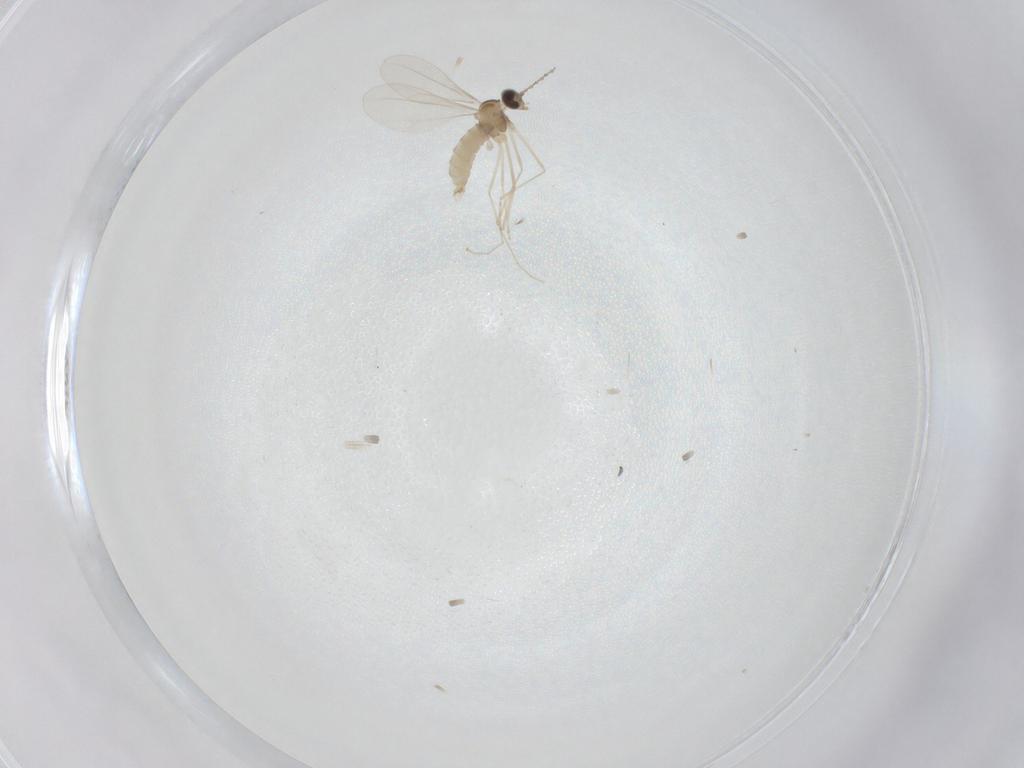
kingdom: Animalia
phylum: Arthropoda
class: Insecta
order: Diptera
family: Cecidomyiidae
